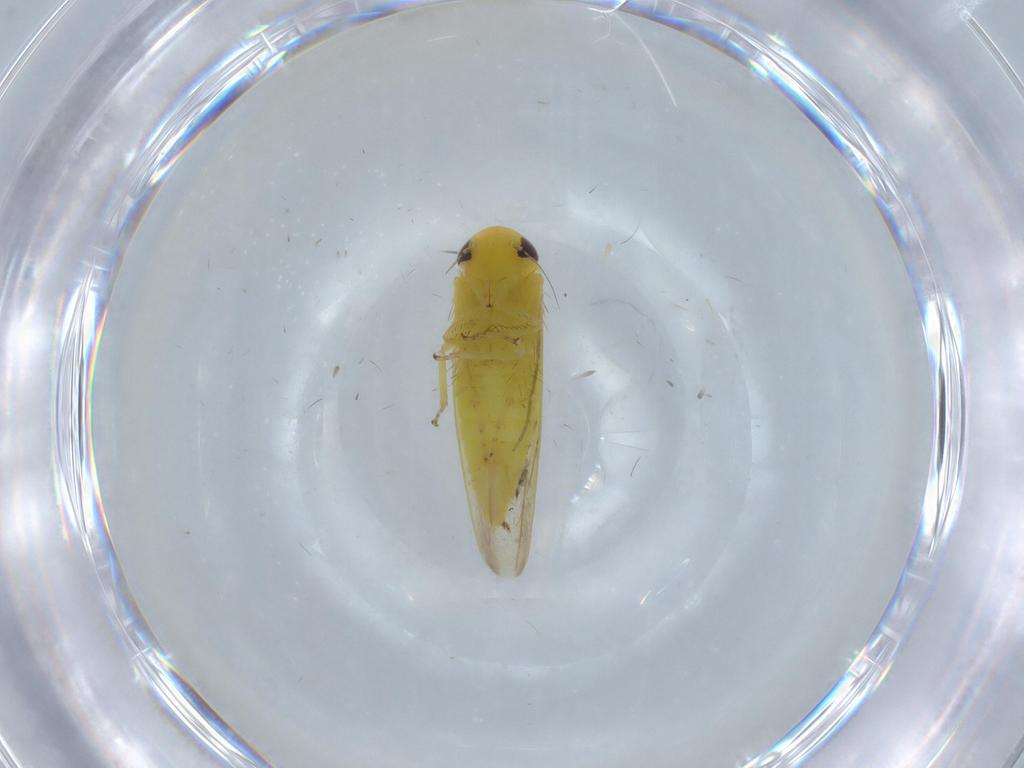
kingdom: Animalia
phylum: Arthropoda
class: Insecta
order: Hemiptera
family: Cicadellidae
